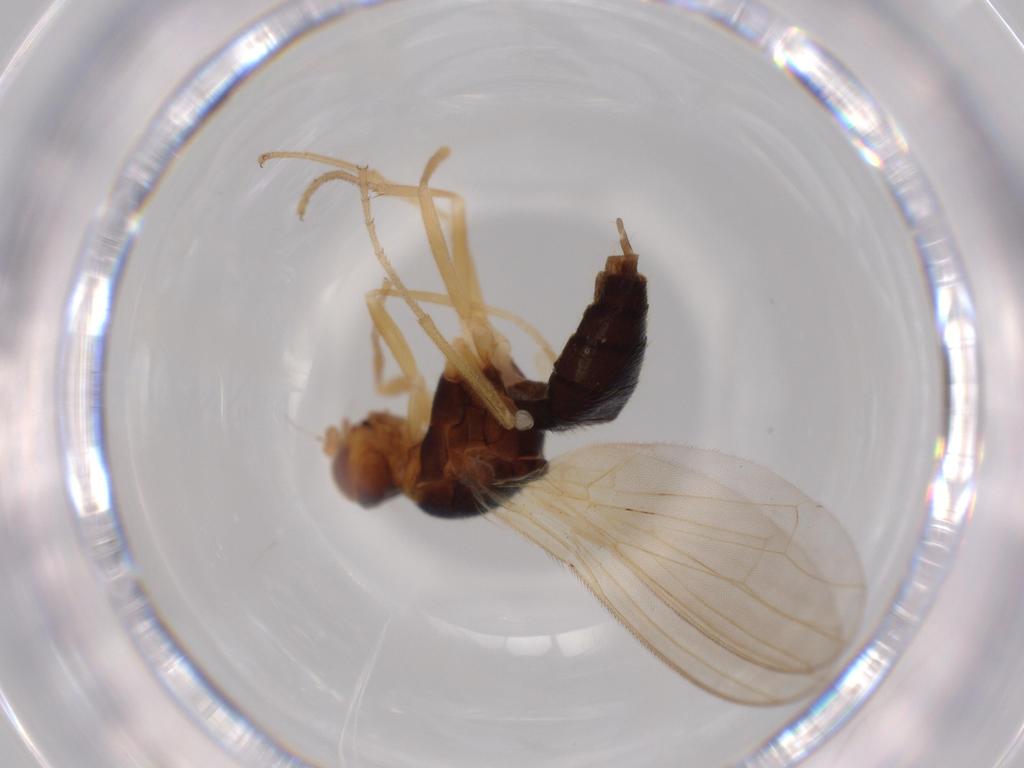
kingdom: Animalia
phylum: Arthropoda
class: Insecta
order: Diptera
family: Psilidae
